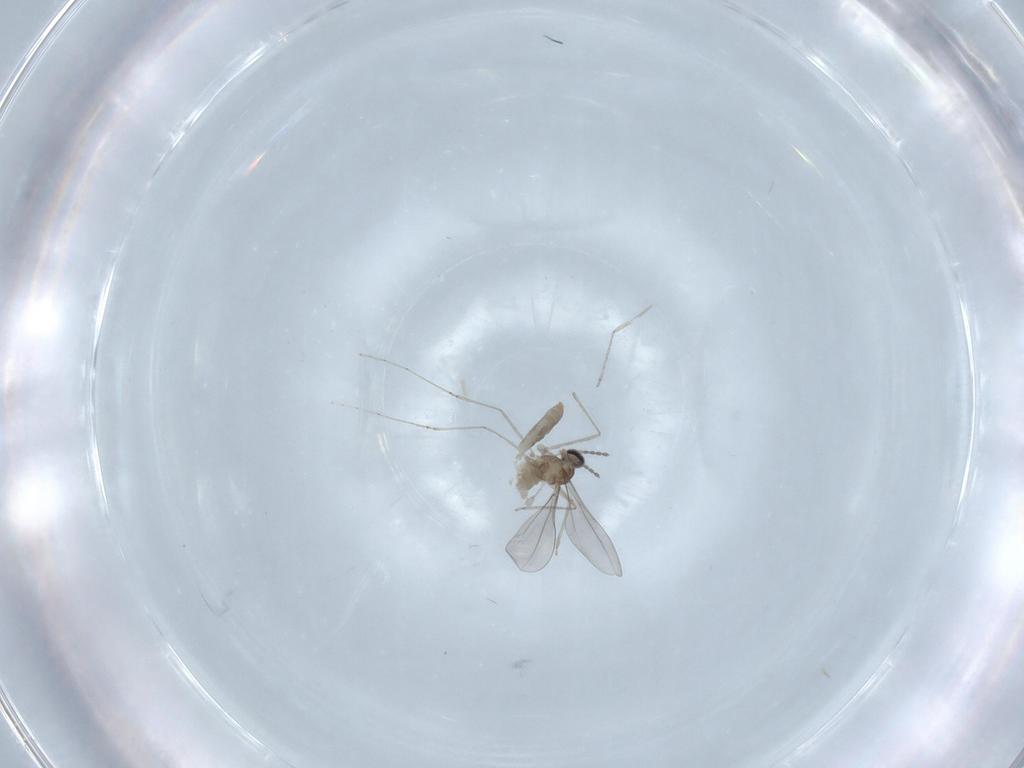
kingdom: Animalia
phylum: Arthropoda
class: Insecta
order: Diptera
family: Cecidomyiidae
